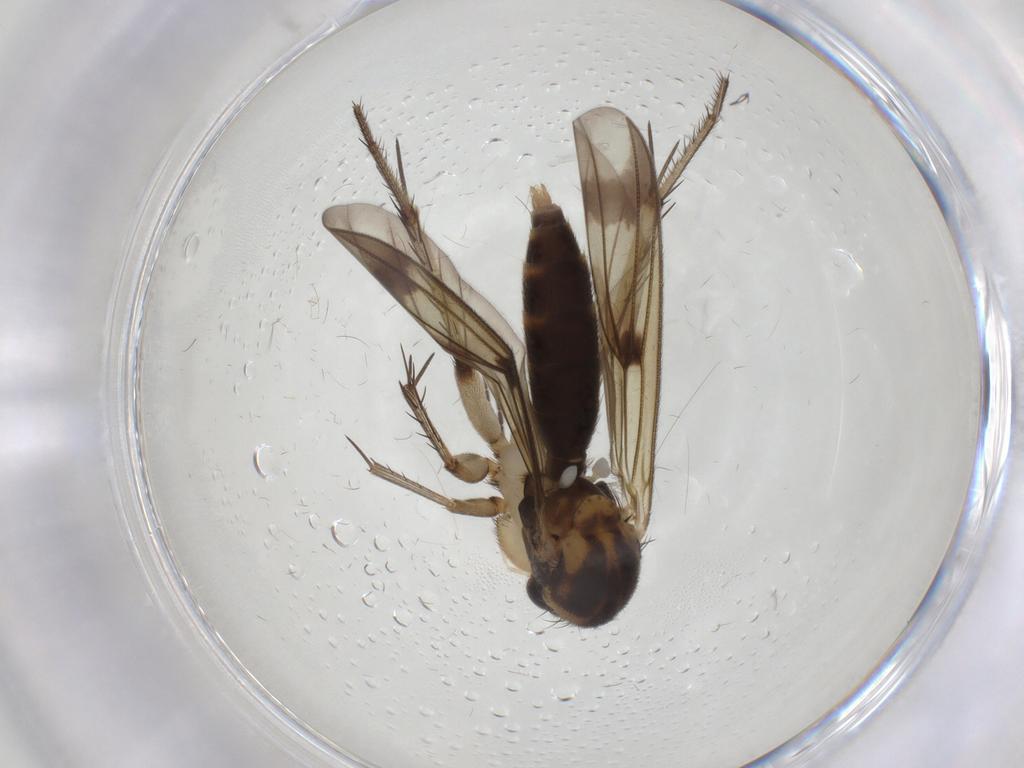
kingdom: Animalia
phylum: Arthropoda
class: Insecta
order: Diptera
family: Mycetophilidae
